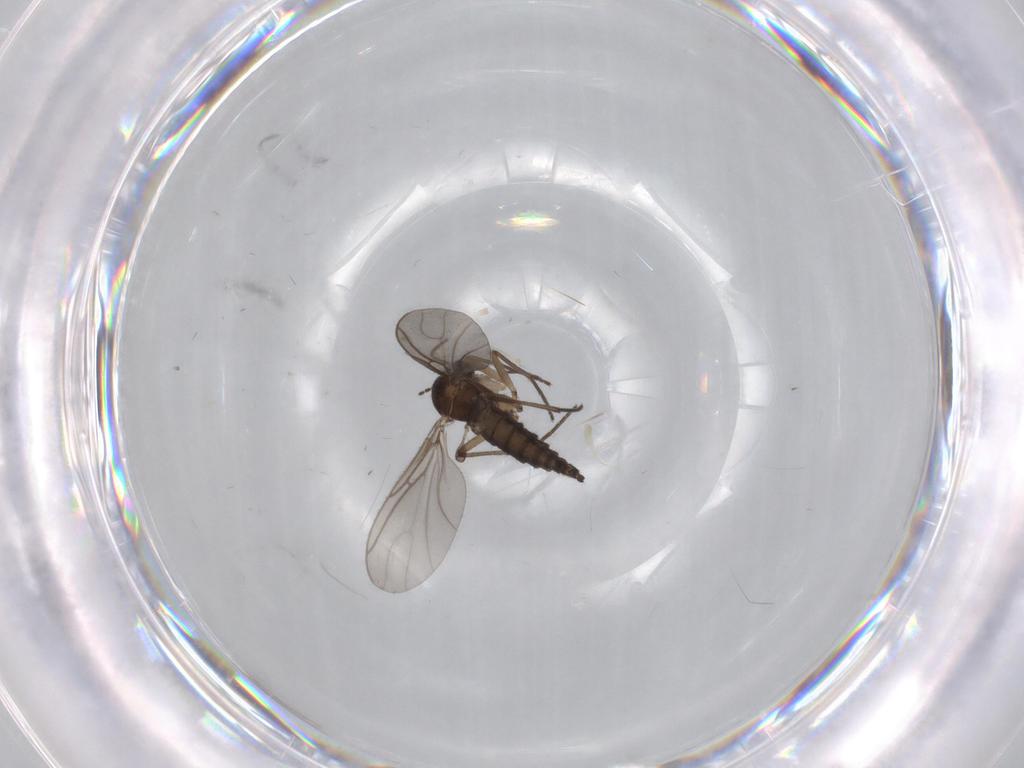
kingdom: Animalia
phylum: Arthropoda
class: Insecta
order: Diptera
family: Sciaridae
